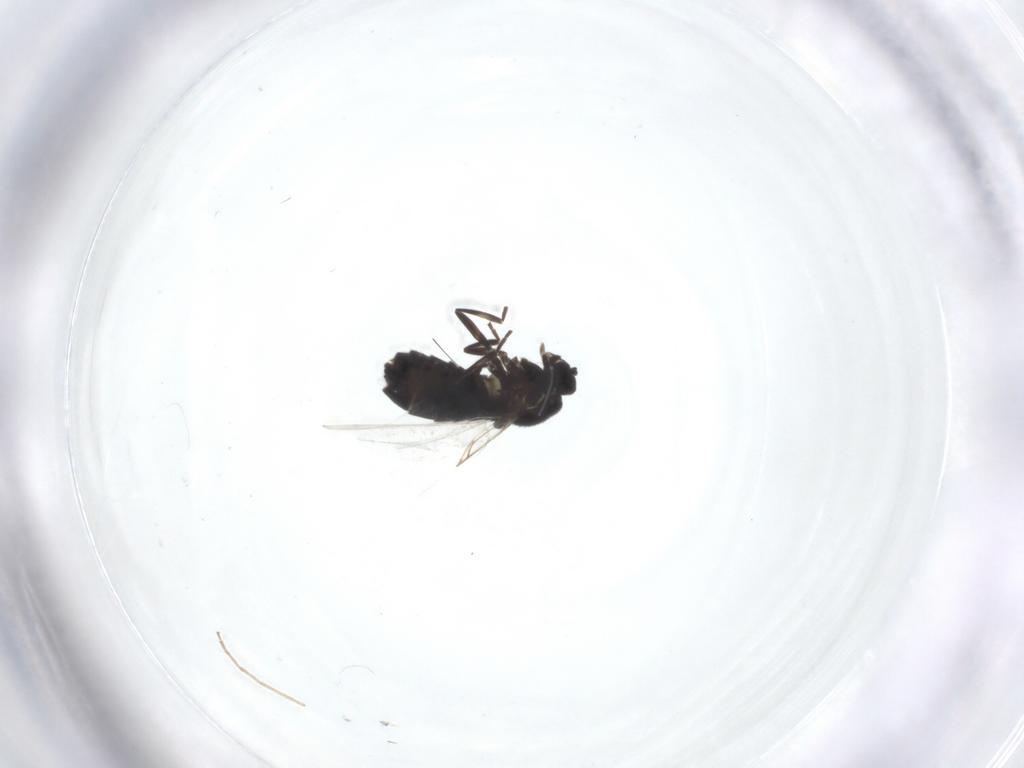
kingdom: Animalia
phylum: Arthropoda
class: Insecta
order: Diptera
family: Scatopsidae
